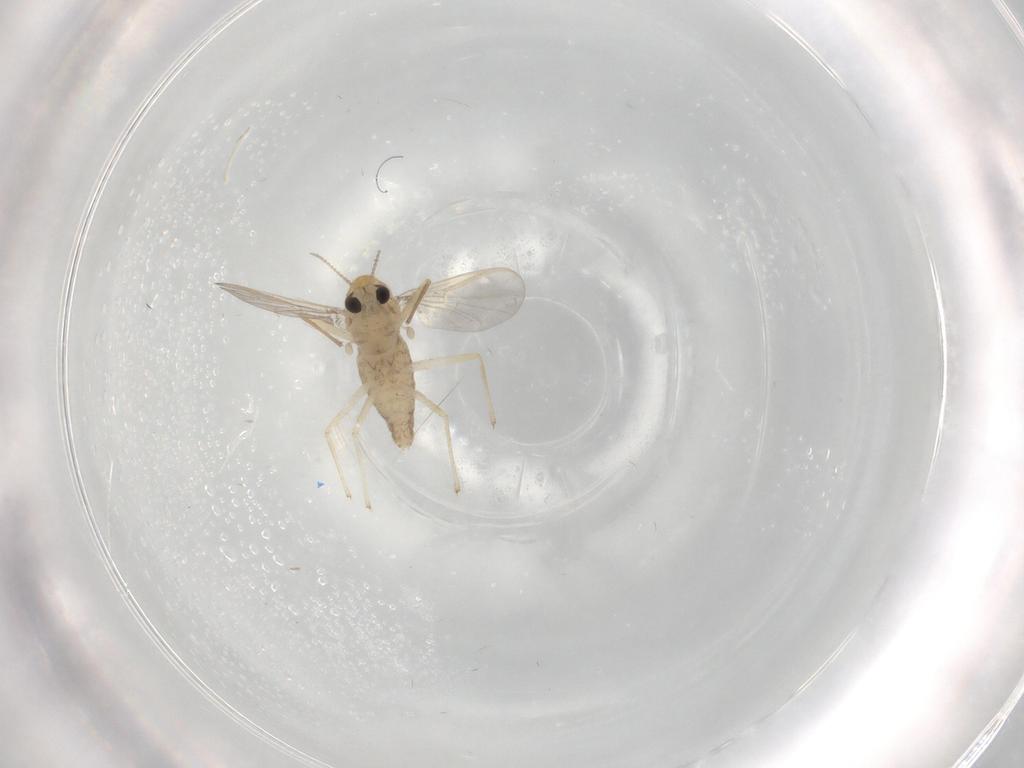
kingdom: Animalia
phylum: Arthropoda
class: Insecta
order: Diptera
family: Chironomidae
